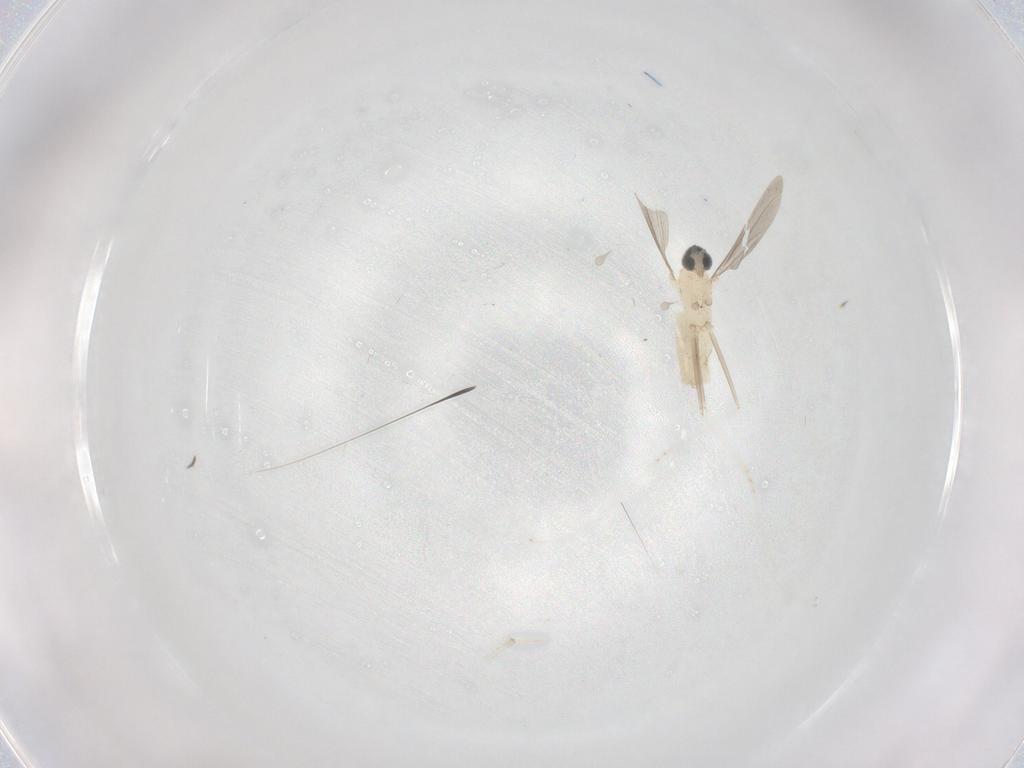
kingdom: Animalia
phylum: Arthropoda
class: Insecta
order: Diptera
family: Cecidomyiidae
